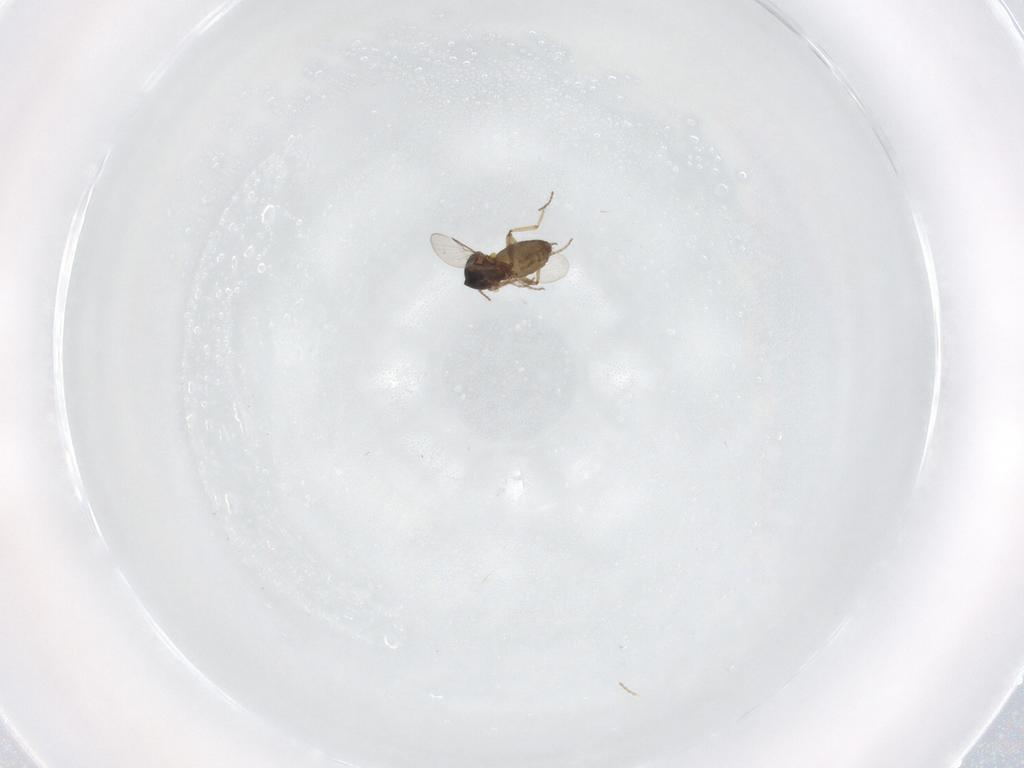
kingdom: Animalia
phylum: Arthropoda
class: Insecta
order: Diptera
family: Ceratopogonidae
